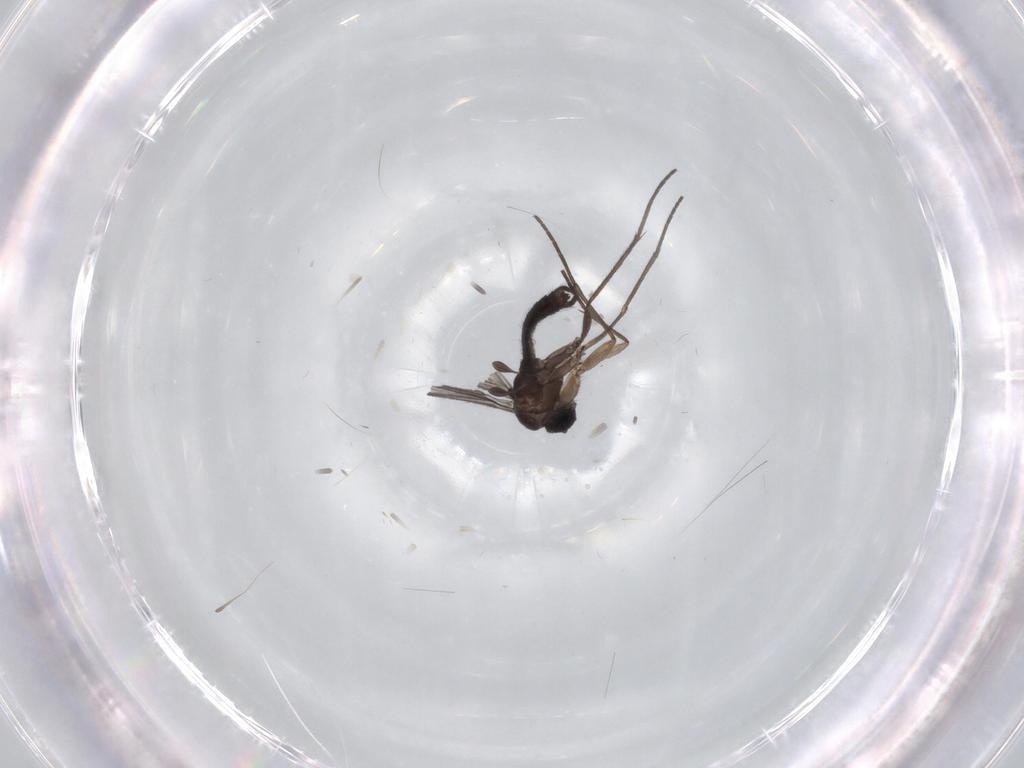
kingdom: Animalia
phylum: Arthropoda
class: Insecta
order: Diptera
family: Sciaridae
